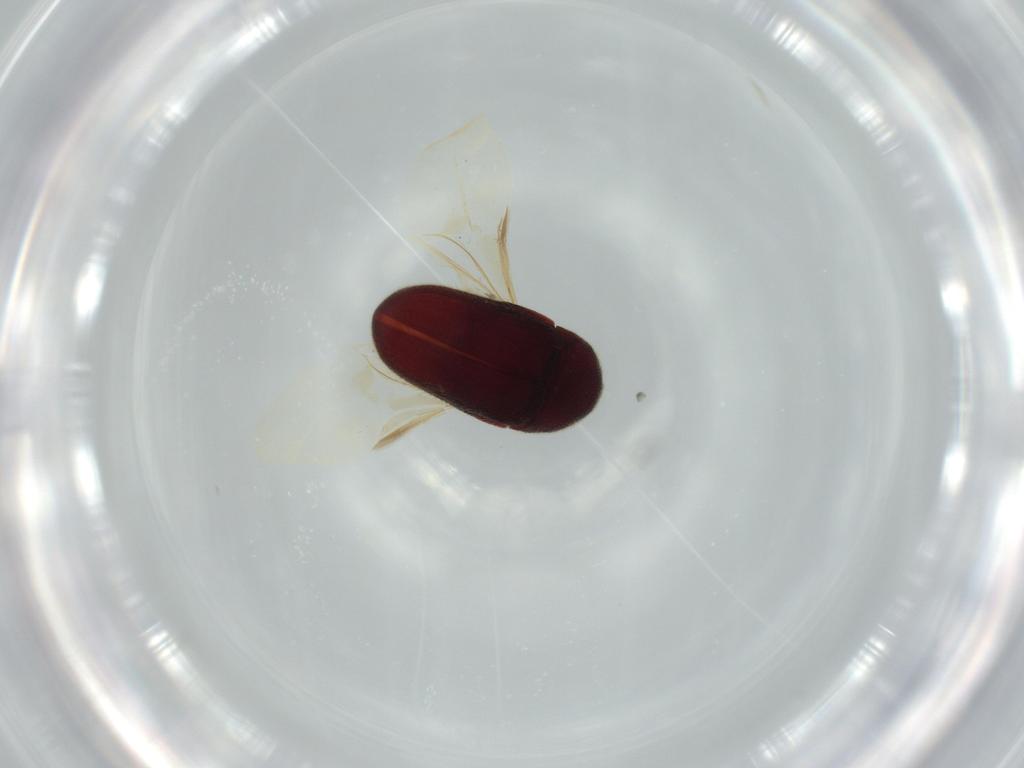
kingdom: Animalia
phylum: Arthropoda
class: Insecta
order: Coleoptera
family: Throscidae
